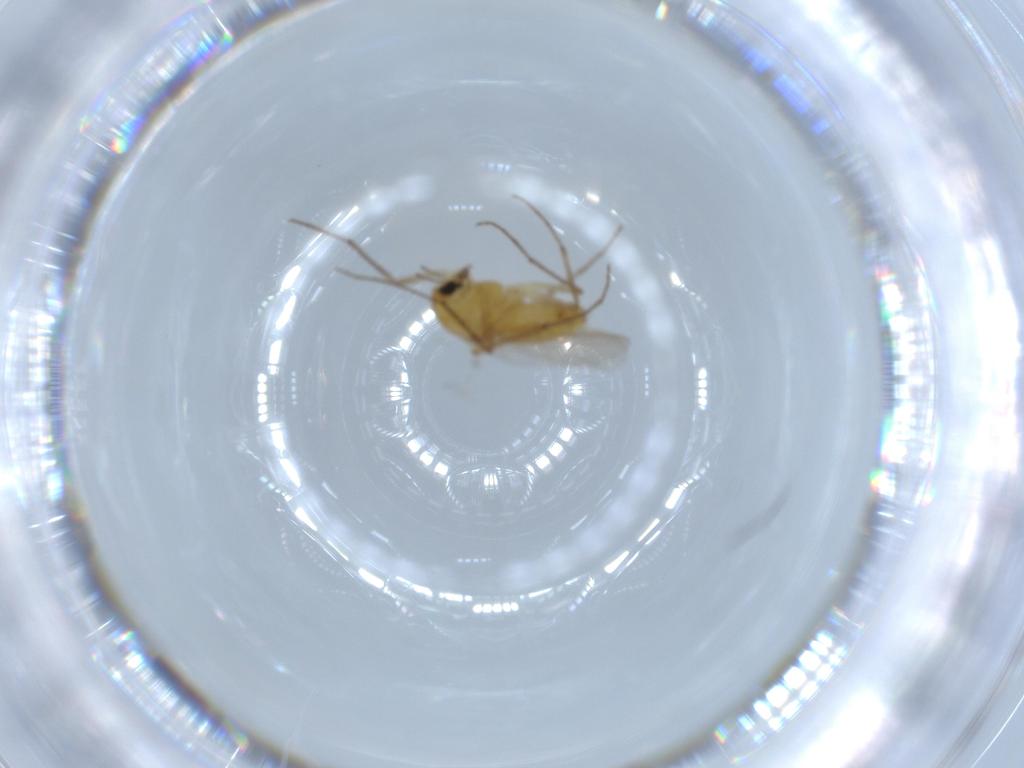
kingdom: Animalia
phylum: Arthropoda
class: Insecta
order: Diptera
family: Chironomidae
